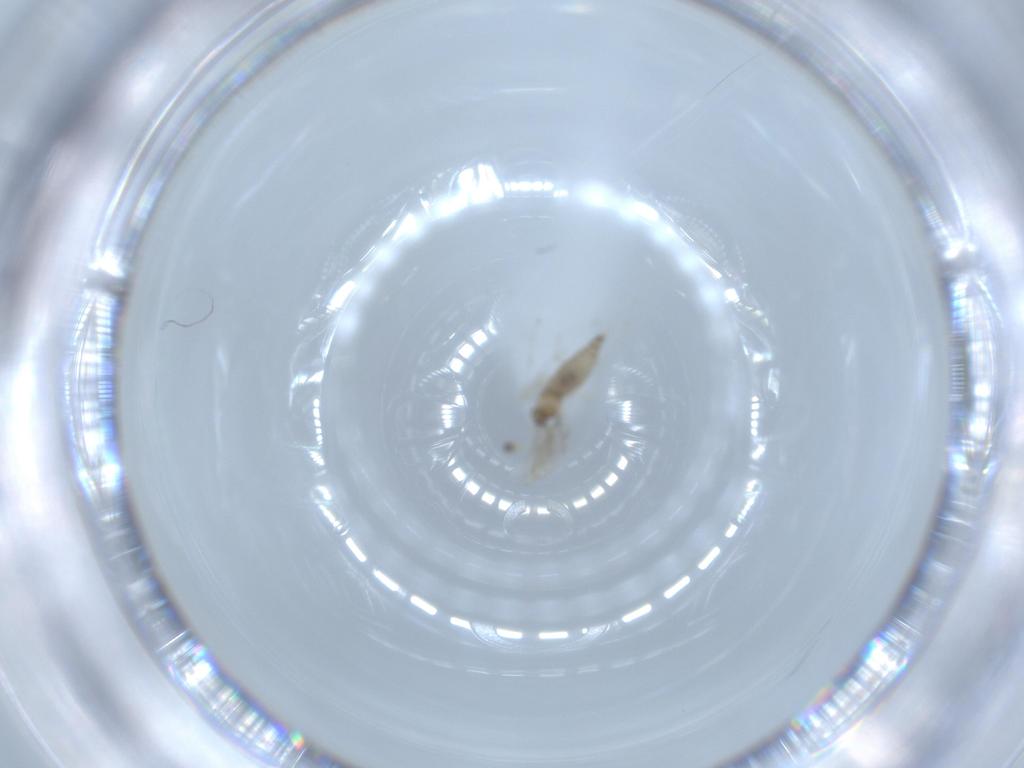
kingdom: Animalia
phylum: Arthropoda
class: Insecta
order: Diptera
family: Cecidomyiidae
